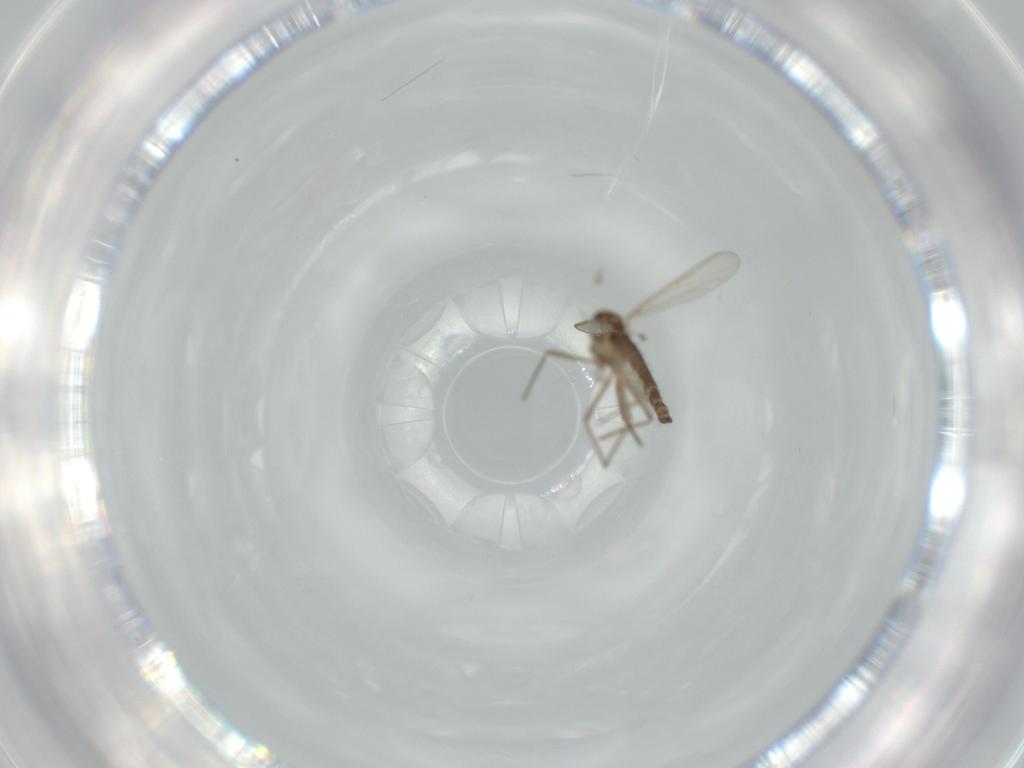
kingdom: Animalia
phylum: Arthropoda
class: Insecta
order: Diptera
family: Chironomidae
